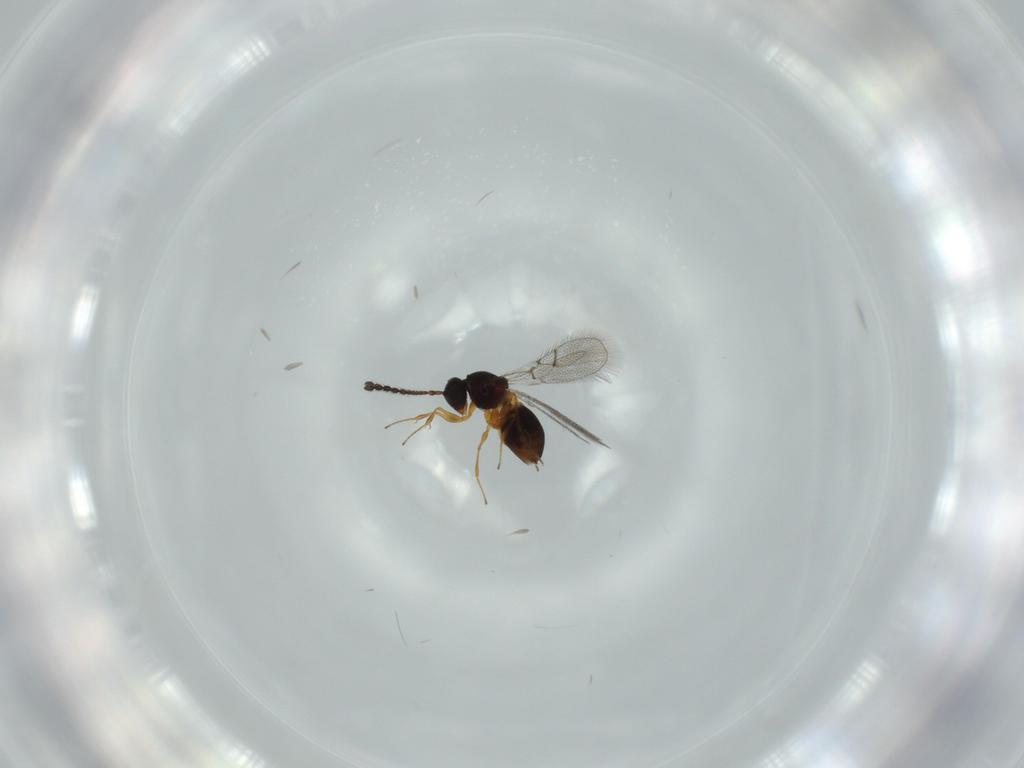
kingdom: Animalia
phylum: Arthropoda
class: Insecta
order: Hymenoptera
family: Figitidae
